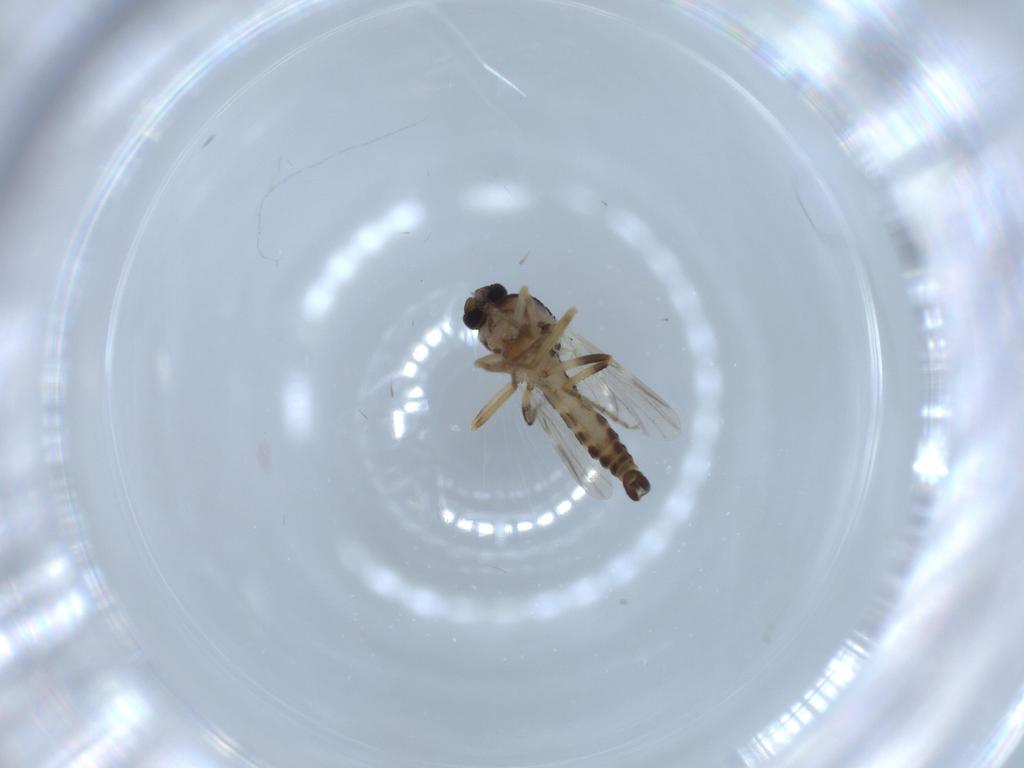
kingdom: Animalia
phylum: Arthropoda
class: Insecta
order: Diptera
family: Ceratopogonidae
